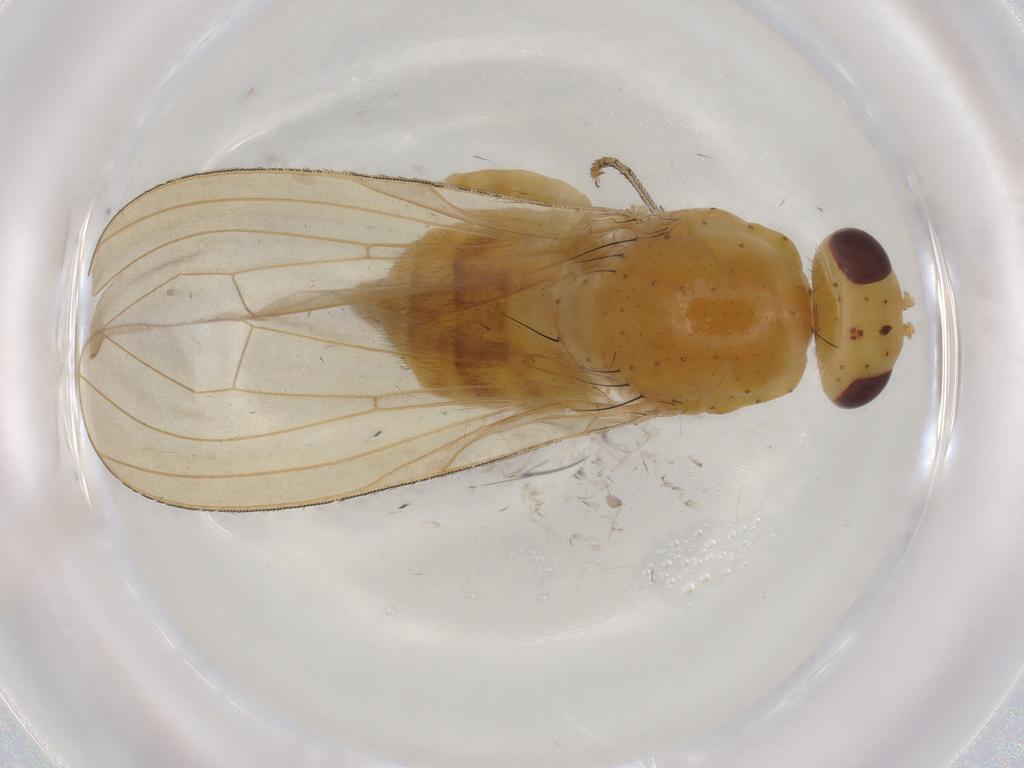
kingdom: Animalia
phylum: Arthropoda
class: Insecta
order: Diptera
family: Lauxaniidae
